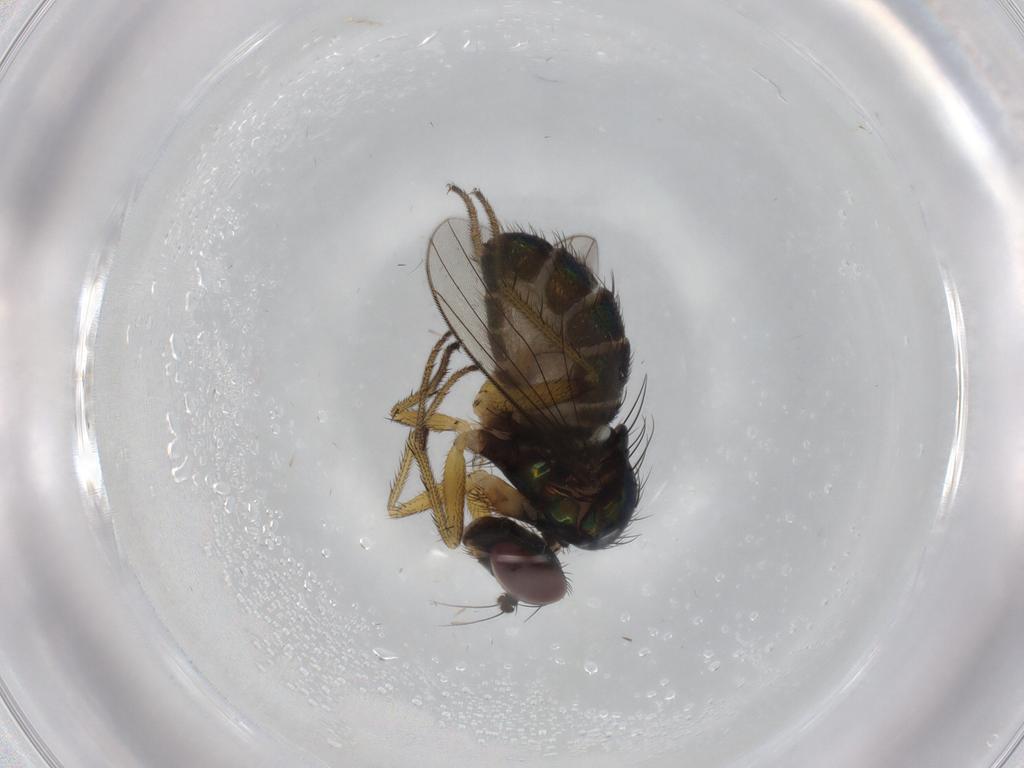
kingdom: Animalia
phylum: Arthropoda
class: Insecta
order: Diptera
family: Dolichopodidae
